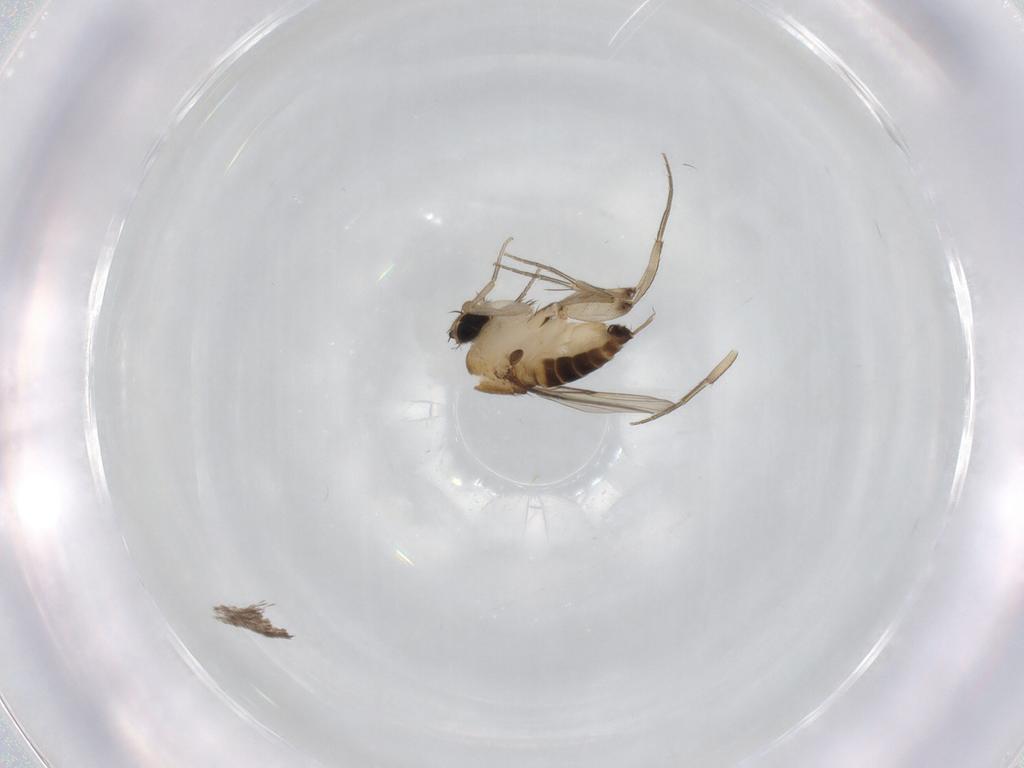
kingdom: Animalia
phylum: Arthropoda
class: Insecta
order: Diptera
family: Phoridae
